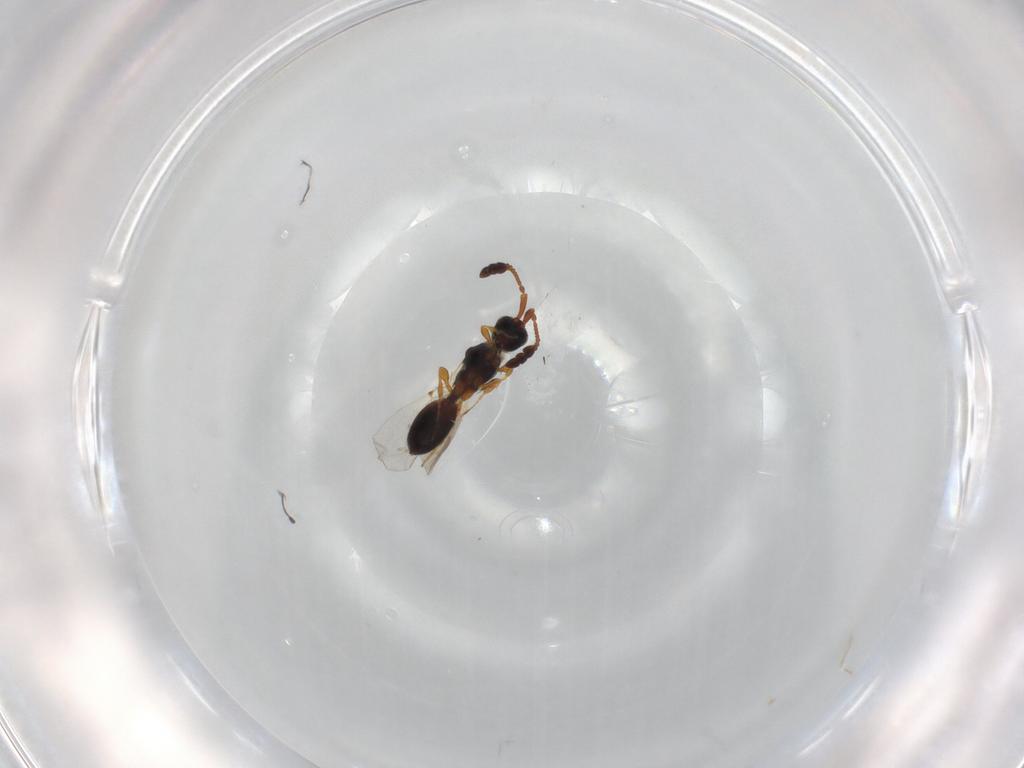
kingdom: Animalia
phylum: Arthropoda
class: Insecta
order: Hymenoptera
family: Diapriidae
